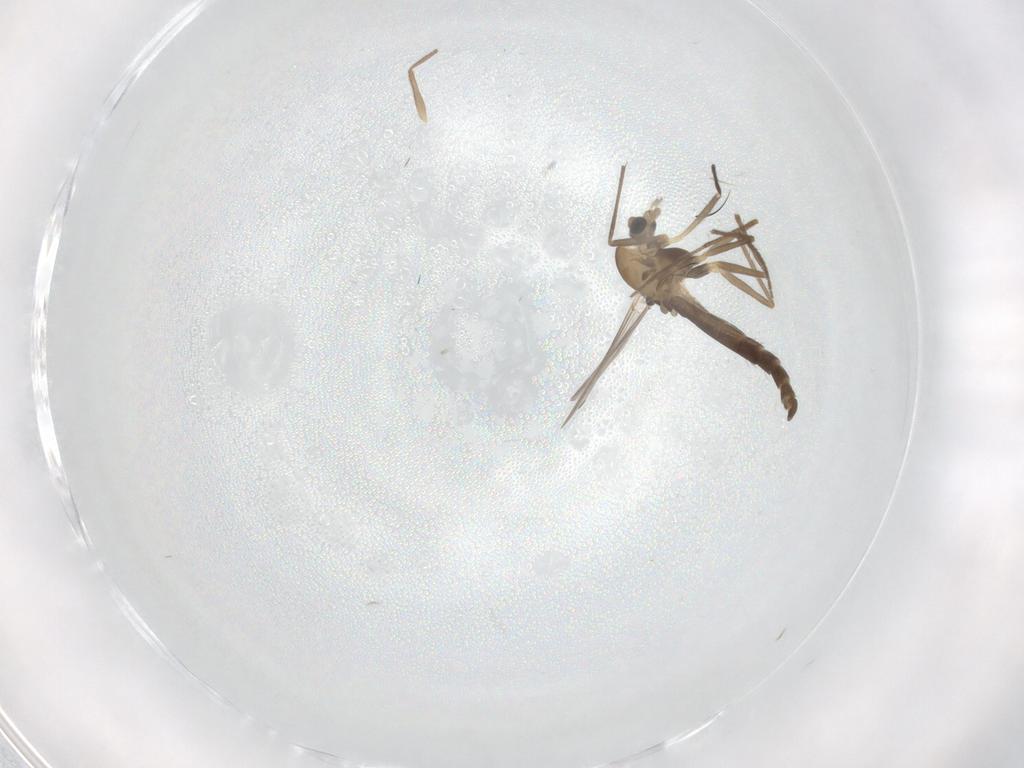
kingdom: Animalia
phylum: Arthropoda
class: Insecta
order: Diptera
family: Chironomidae
